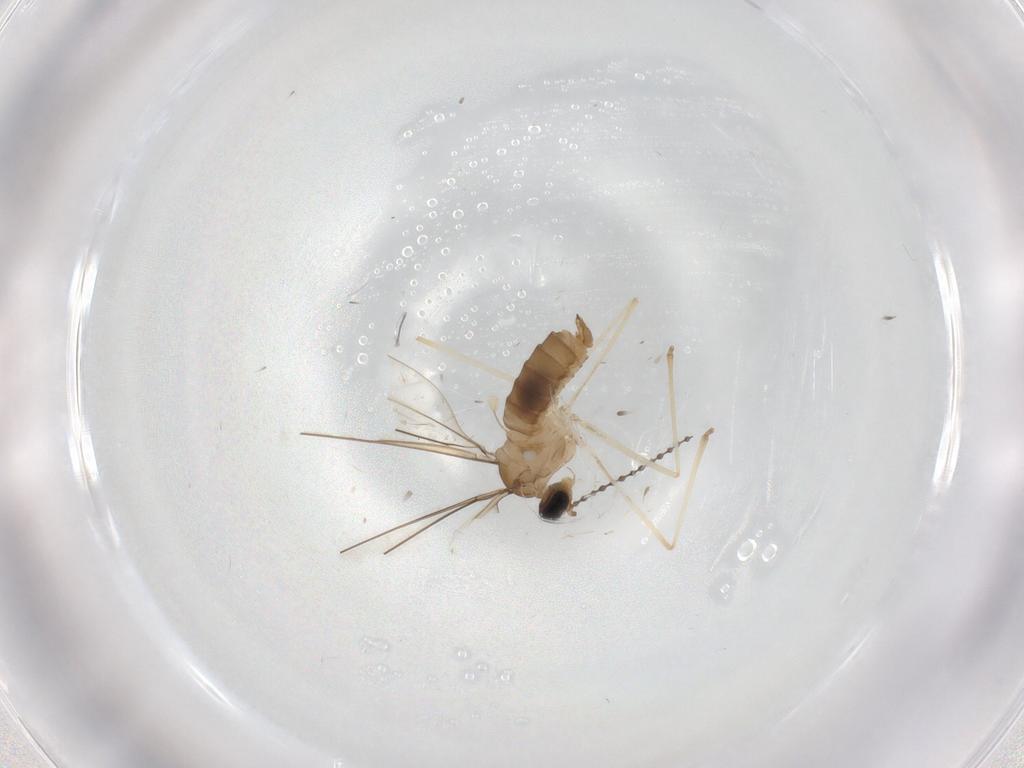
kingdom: Animalia
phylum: Arthropoda
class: Insecta
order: Diptera
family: Cecidomyiidae
